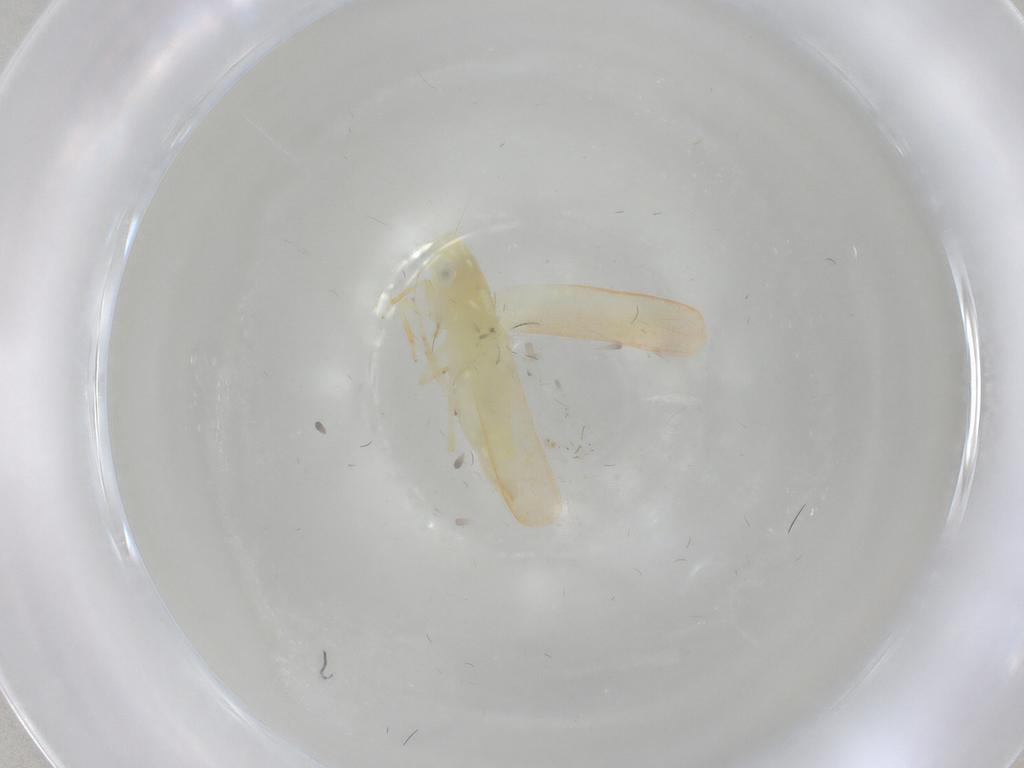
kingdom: Animalia
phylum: Arthropoda
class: Insecta
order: Hemiptera
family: Cicadellidae
